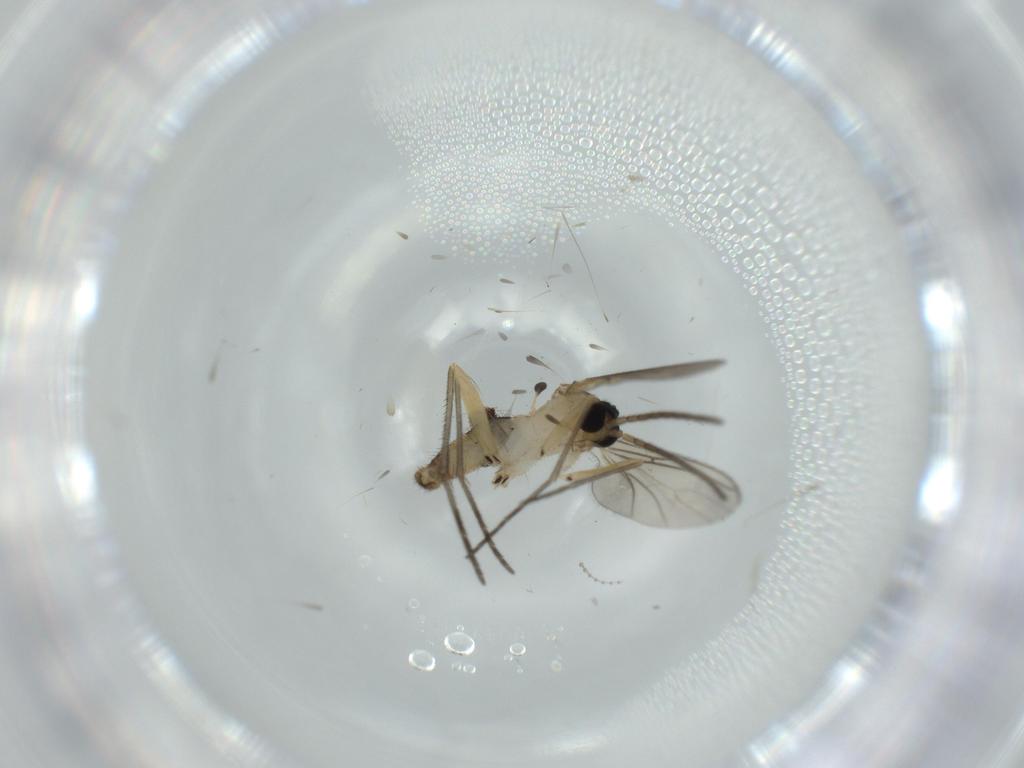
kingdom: Animalia
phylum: Arthropoda
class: Insecta
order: Diptera
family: Sciaridae
